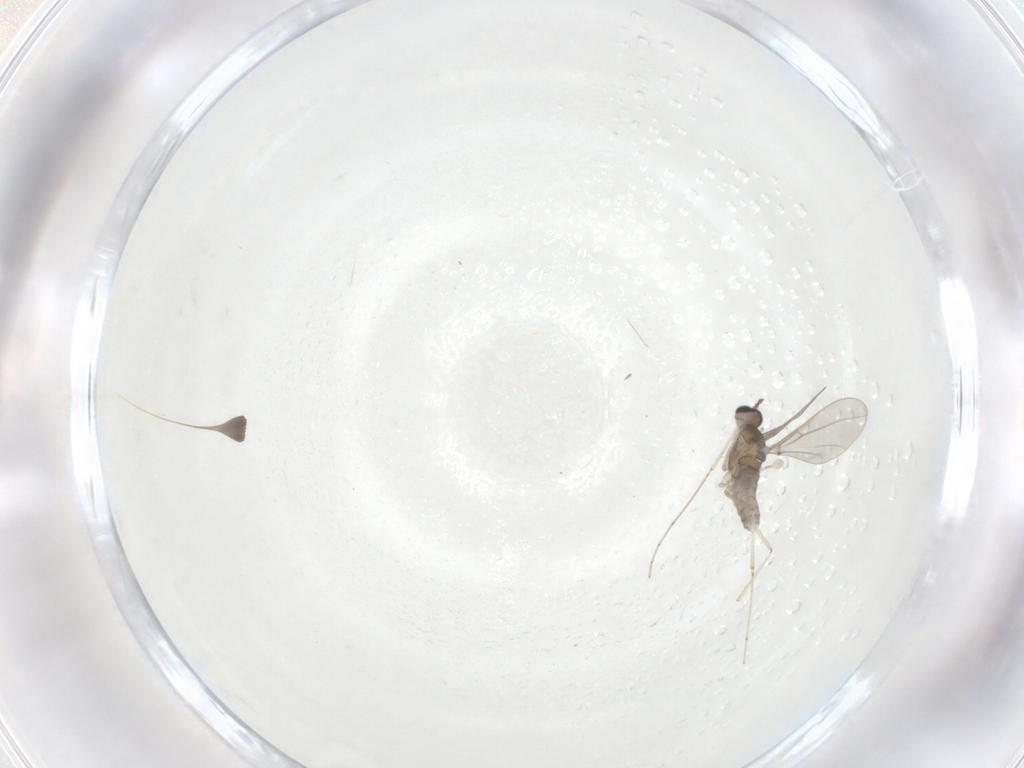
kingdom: Animalia
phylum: Arthropoda
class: Insecta
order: Diptera
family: Cecidomyiidae
